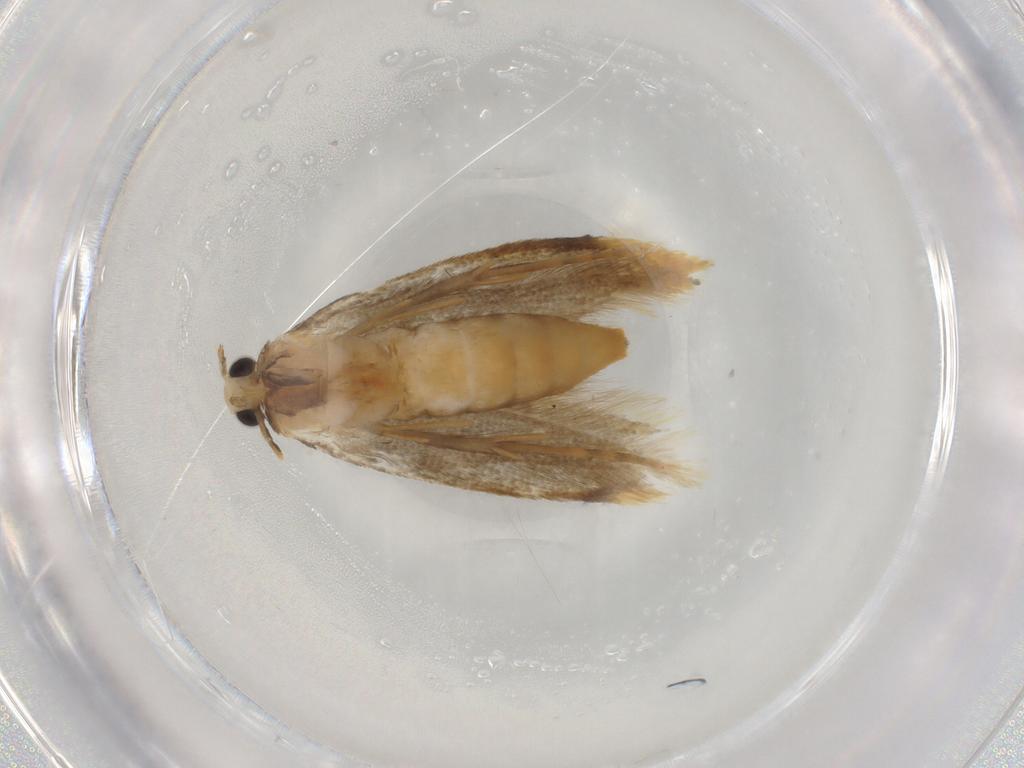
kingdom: Animalia
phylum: Arthropoda
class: Insecta
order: Lepidoptera
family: Tineidae
